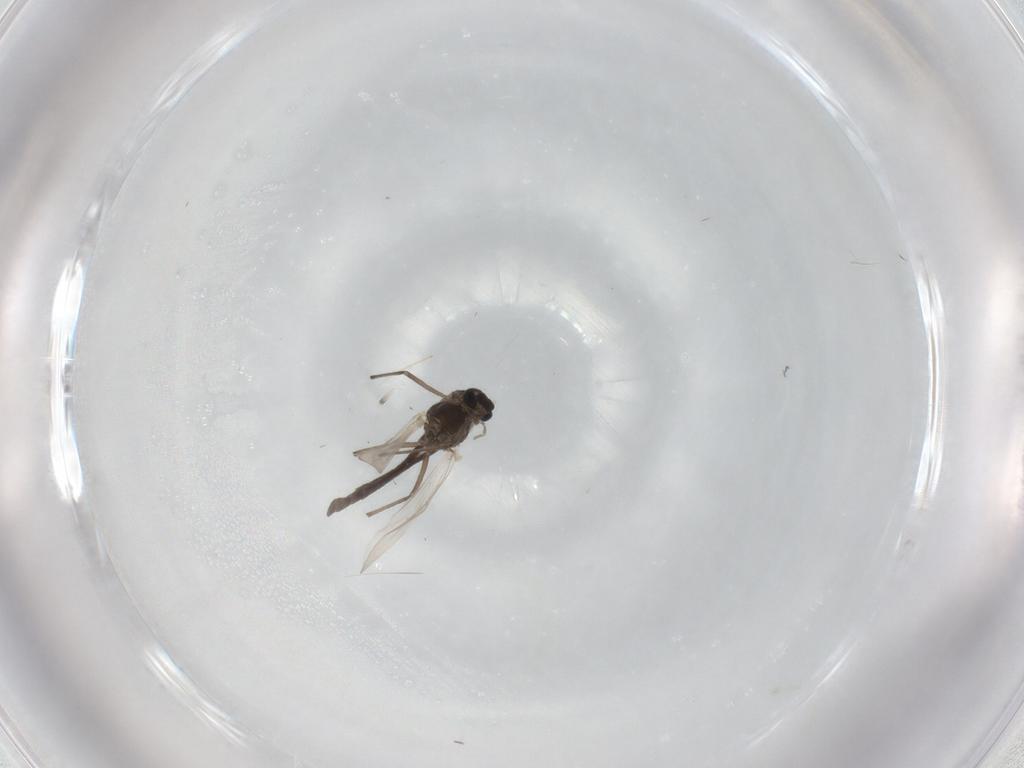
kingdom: Animalia
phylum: Arthropoda
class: Insecta
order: Diptera
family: Chironomidae
